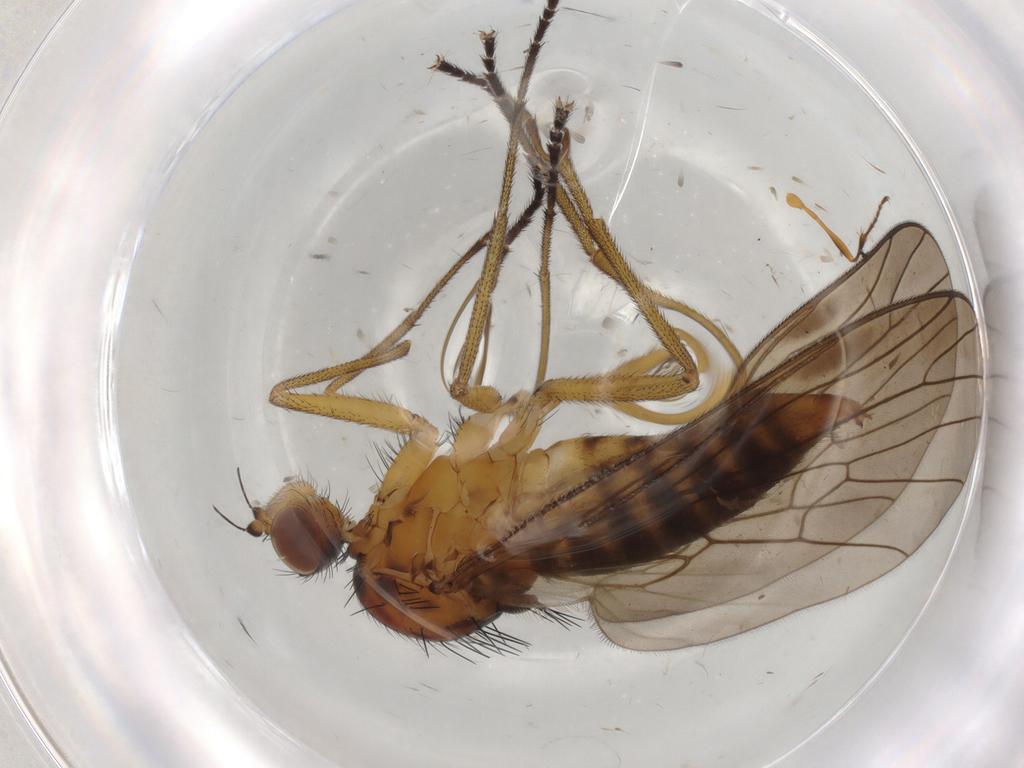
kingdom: Animalia
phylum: Arthropoda
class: Insecta
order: Diptera
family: Brachystomatidae
